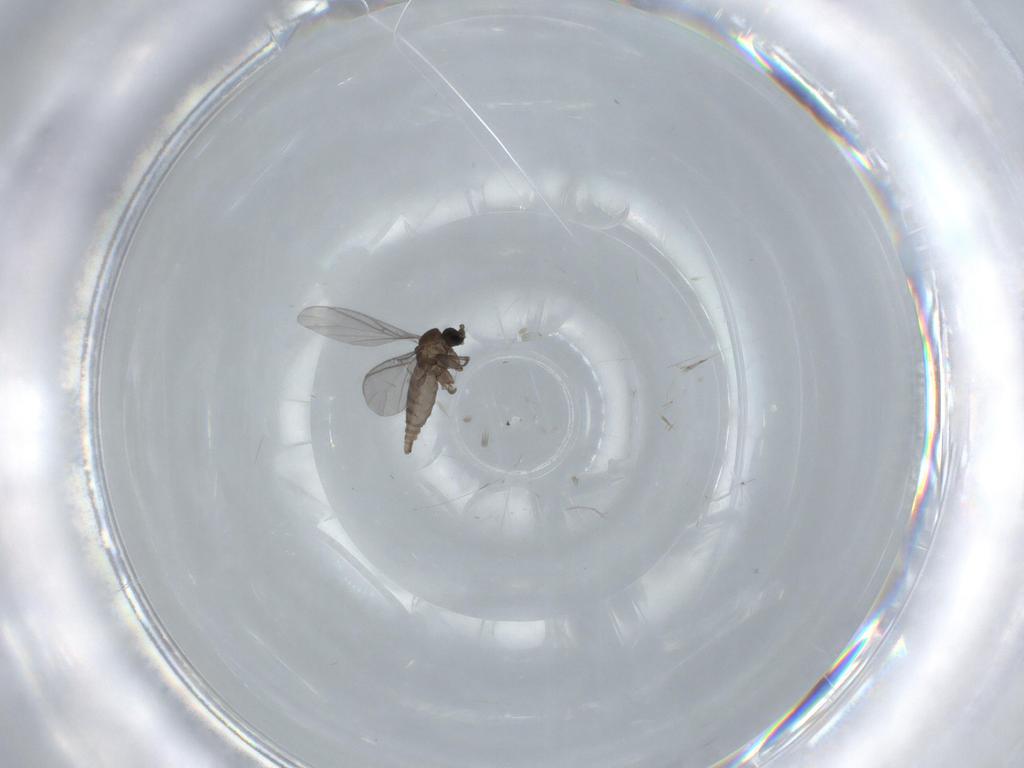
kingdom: Animalia
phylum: Arthropoda
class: Insecta
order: Diptera
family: Sciaridae
